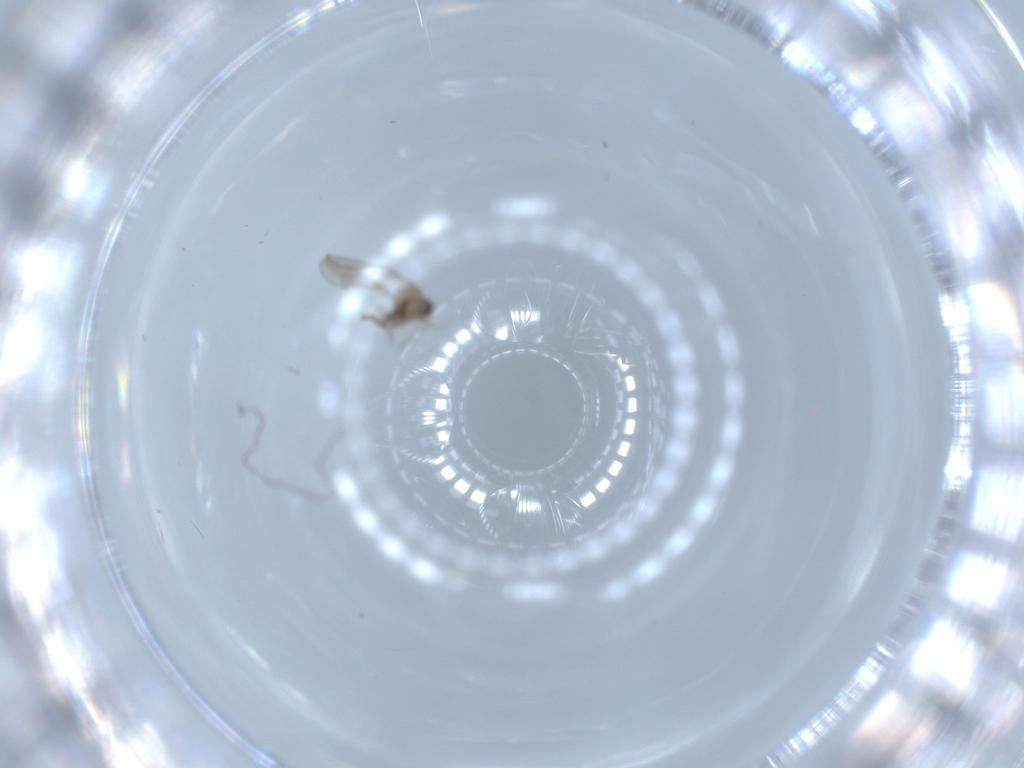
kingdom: Animalia
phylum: Arthropoda
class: Insecta
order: Diptera
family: Cecidomyiidae
